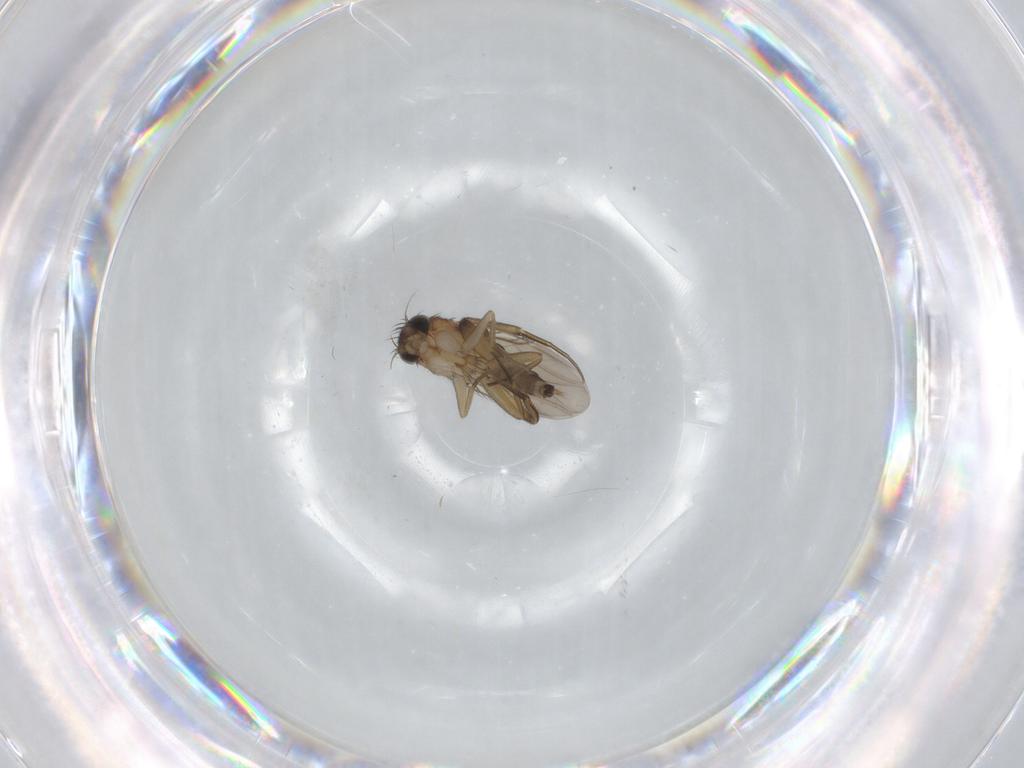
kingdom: Animalia
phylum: Arthropoda
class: Insecta
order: Diptera
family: Phoridae
